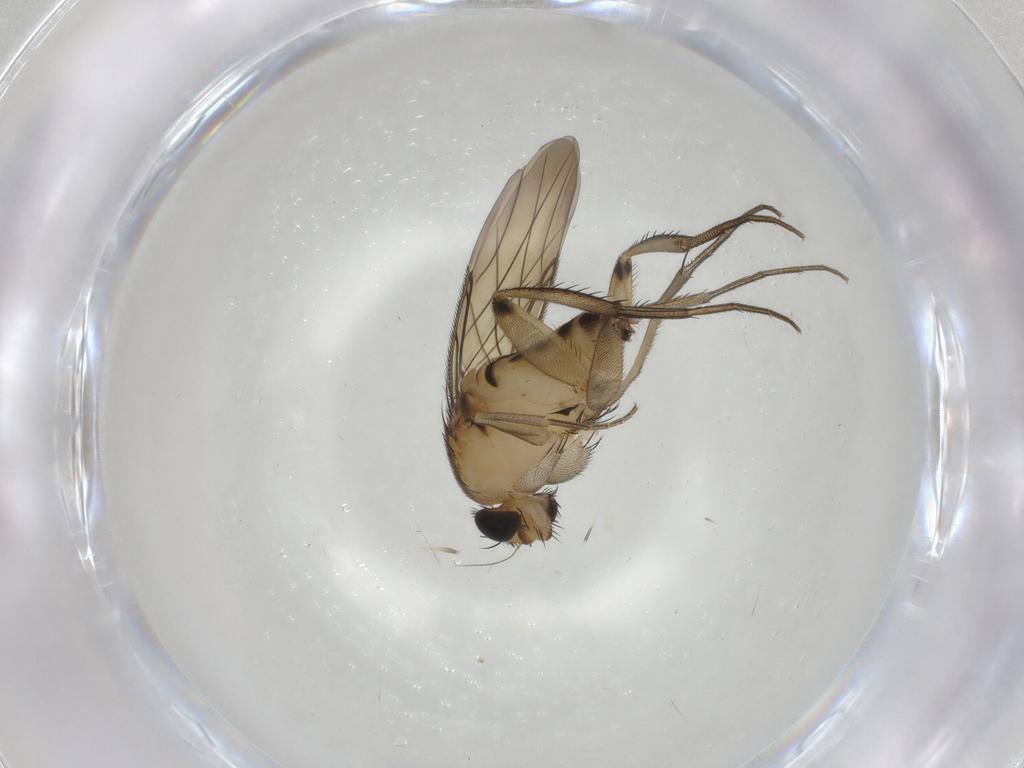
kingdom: Animalia
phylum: Arthropoda
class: Insecta
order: Diptera
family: Phoridae
